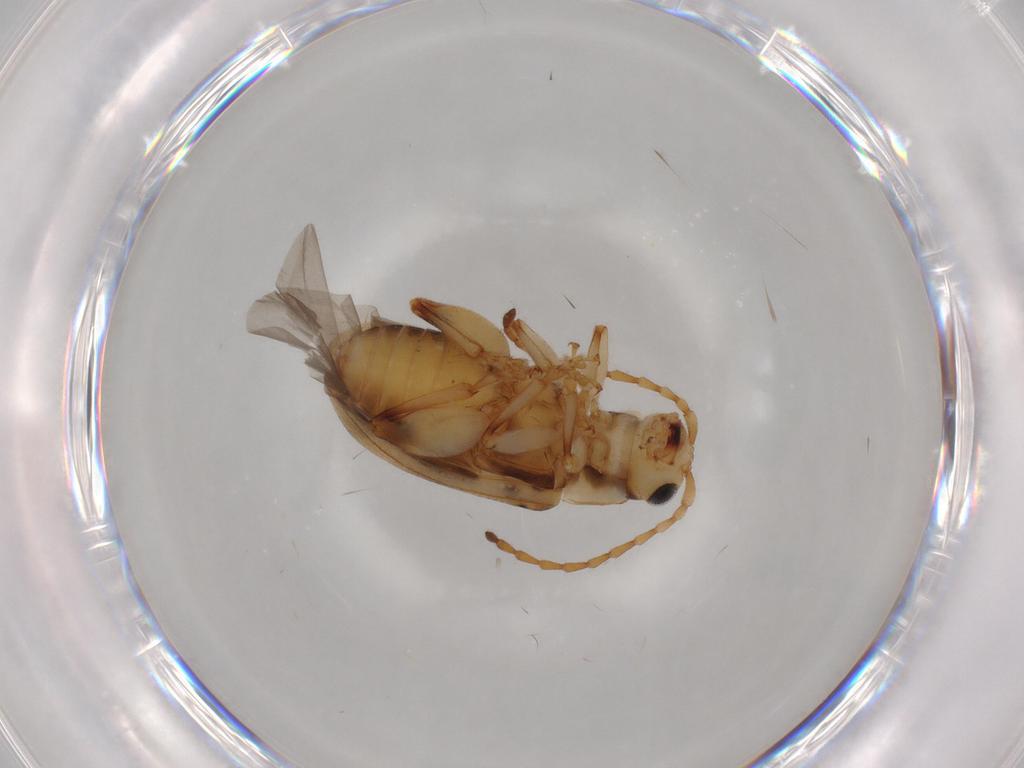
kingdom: Animalia
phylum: Arthropoda
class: Insecta
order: Coleoptera
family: Chrysomelidae
